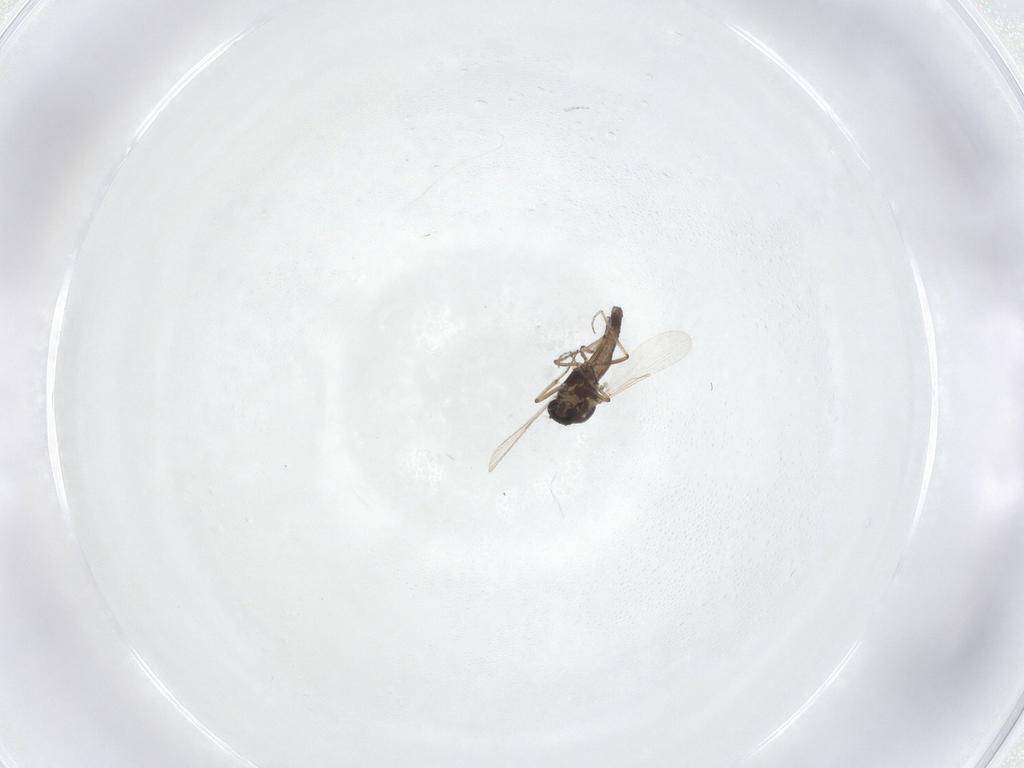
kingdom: Animalia
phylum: Arthropoda
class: Insecta
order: Diptera
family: Ceratopogonidae
